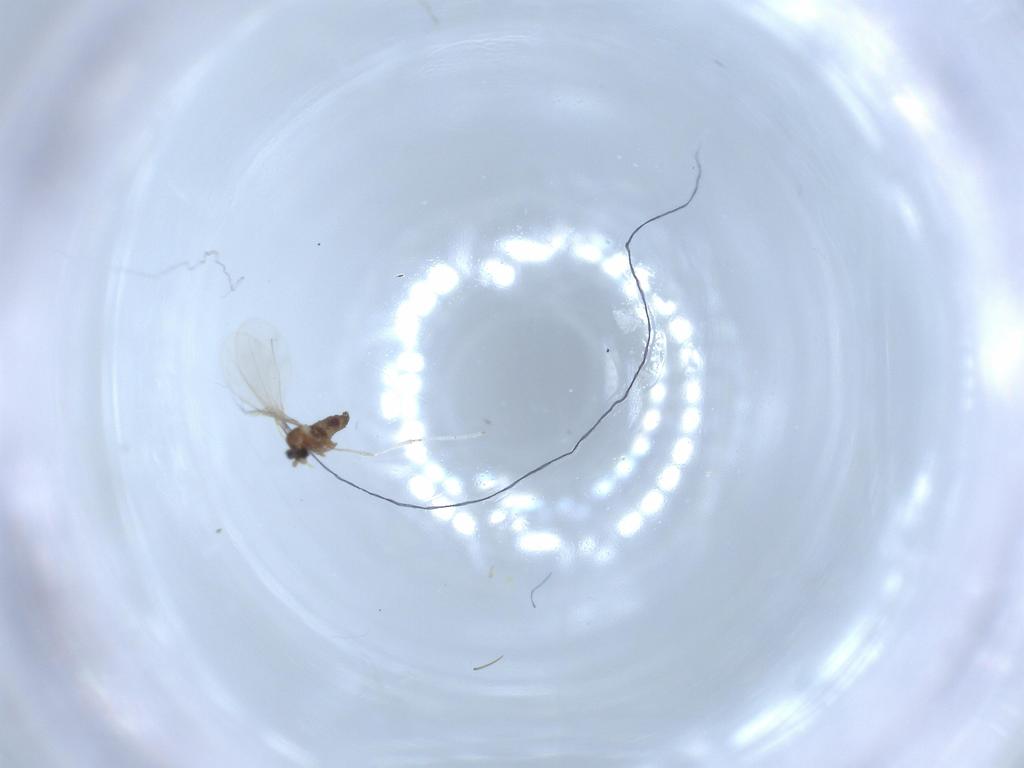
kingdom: Animalia
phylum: Arthropoda
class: Insecta
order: Diptera
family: Cecidomyiidae
